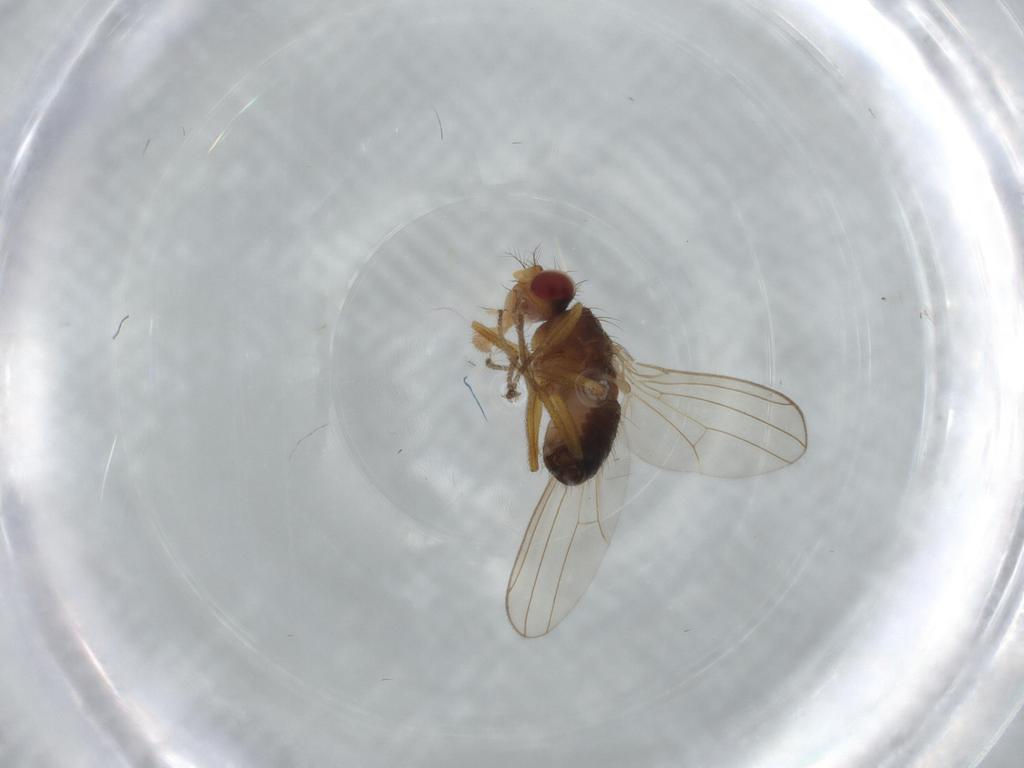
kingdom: Animalia
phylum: Arthropoda
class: Insecta
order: Diptera
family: Drosophilidae
